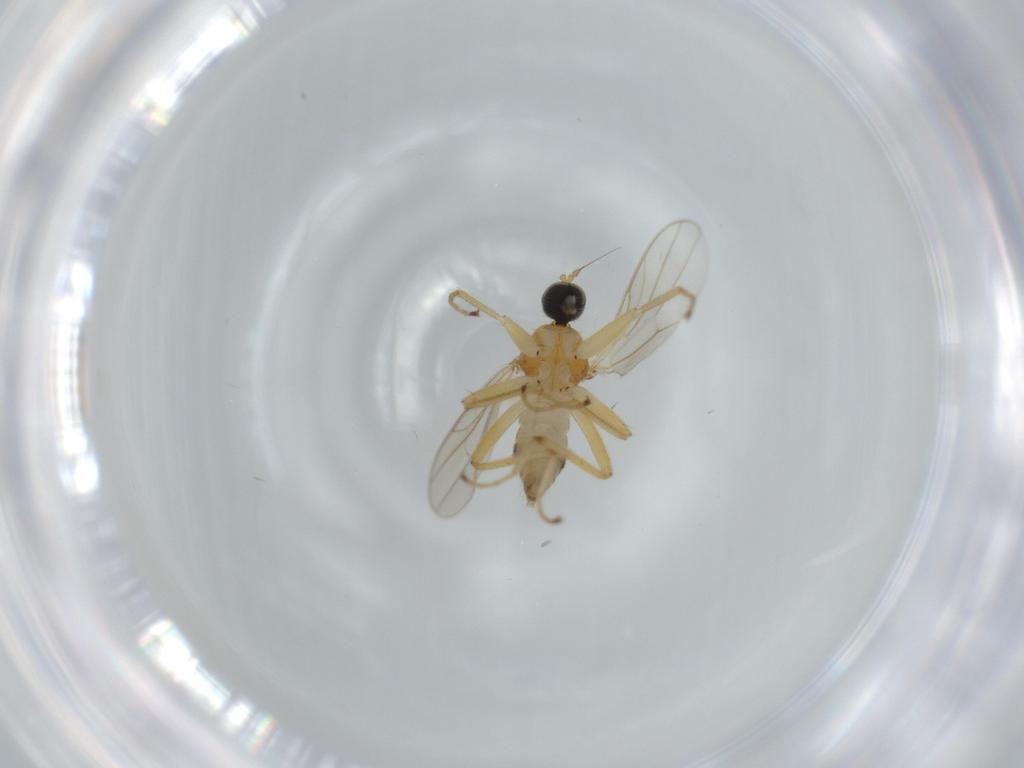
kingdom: Animalia
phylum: Arthropoda
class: Insecta
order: Diptera
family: Hybotidae
